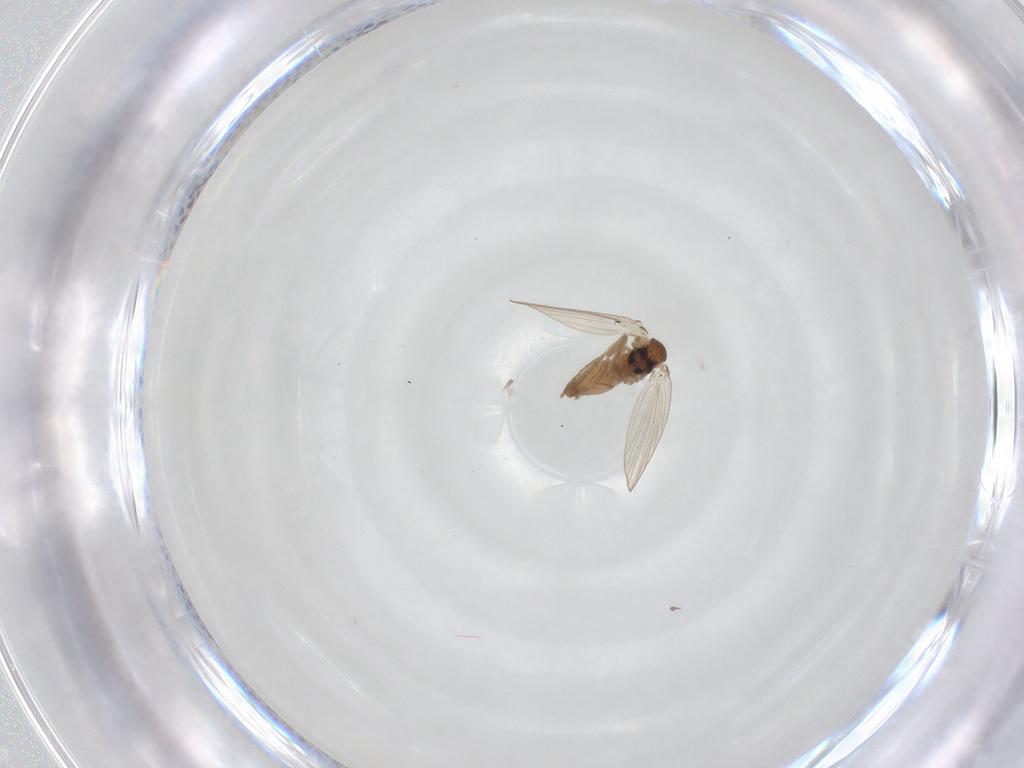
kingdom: Animalia
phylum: Arthropoda
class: Insecta
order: Diptera
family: Psychodidae
